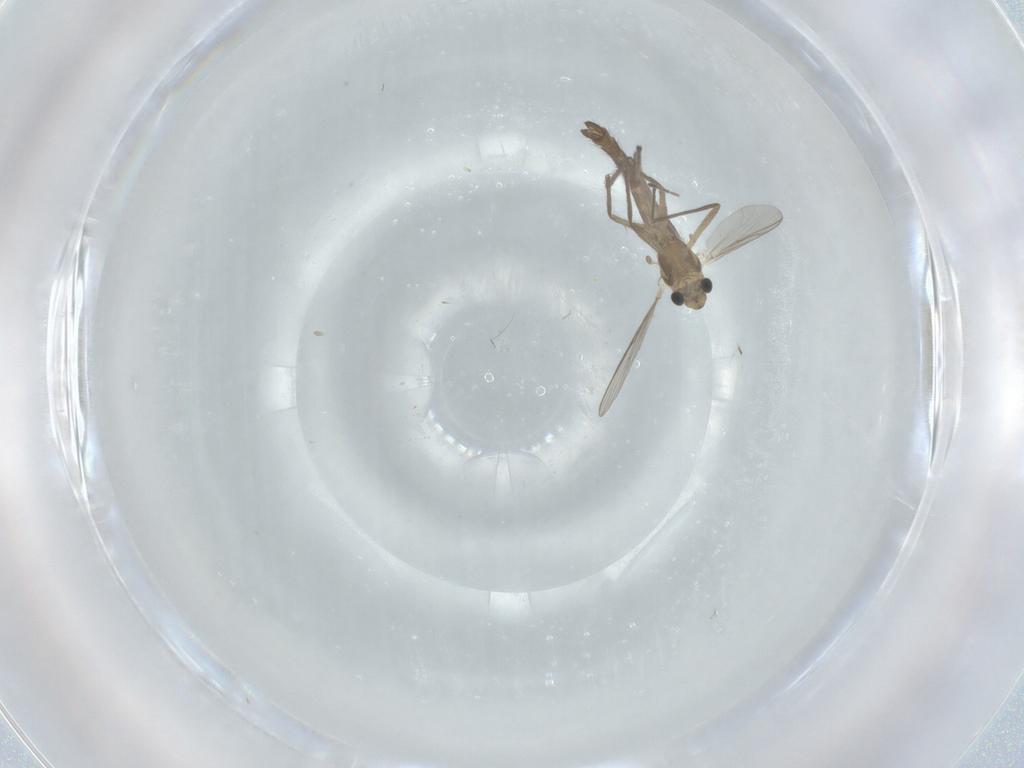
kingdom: Animalia
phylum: Arthropoda
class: Insecta
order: Diptera
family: Chironomidae
